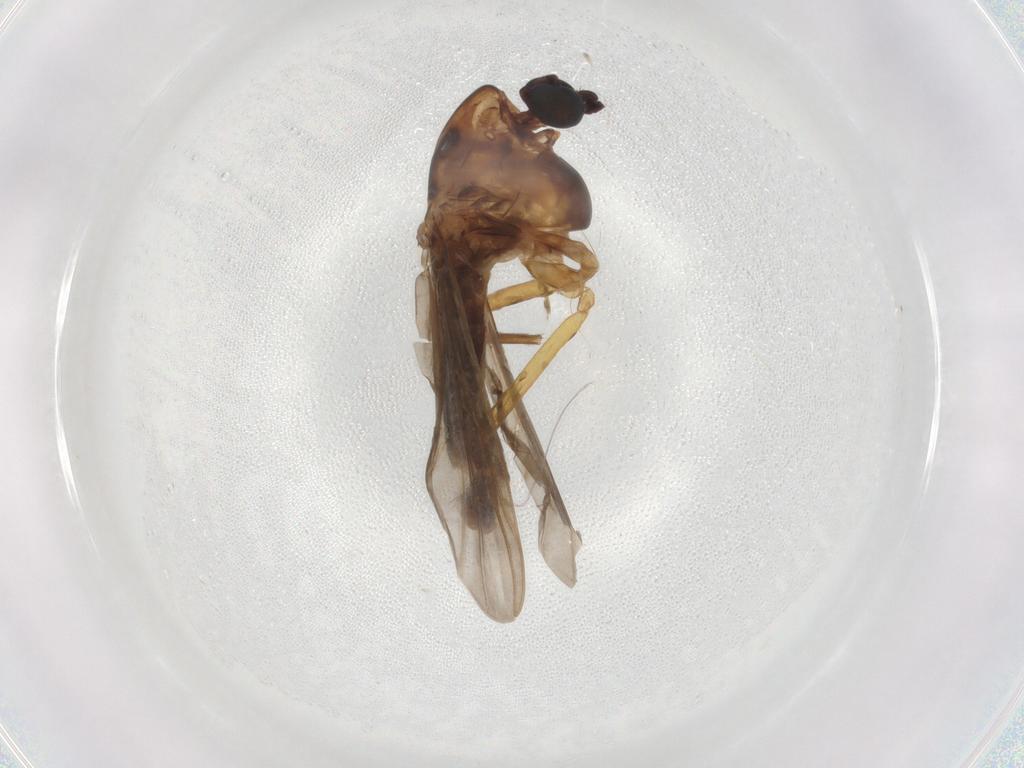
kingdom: Animalia
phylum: Arthropoda
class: Insecta
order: Diptera
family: Chironomidae
